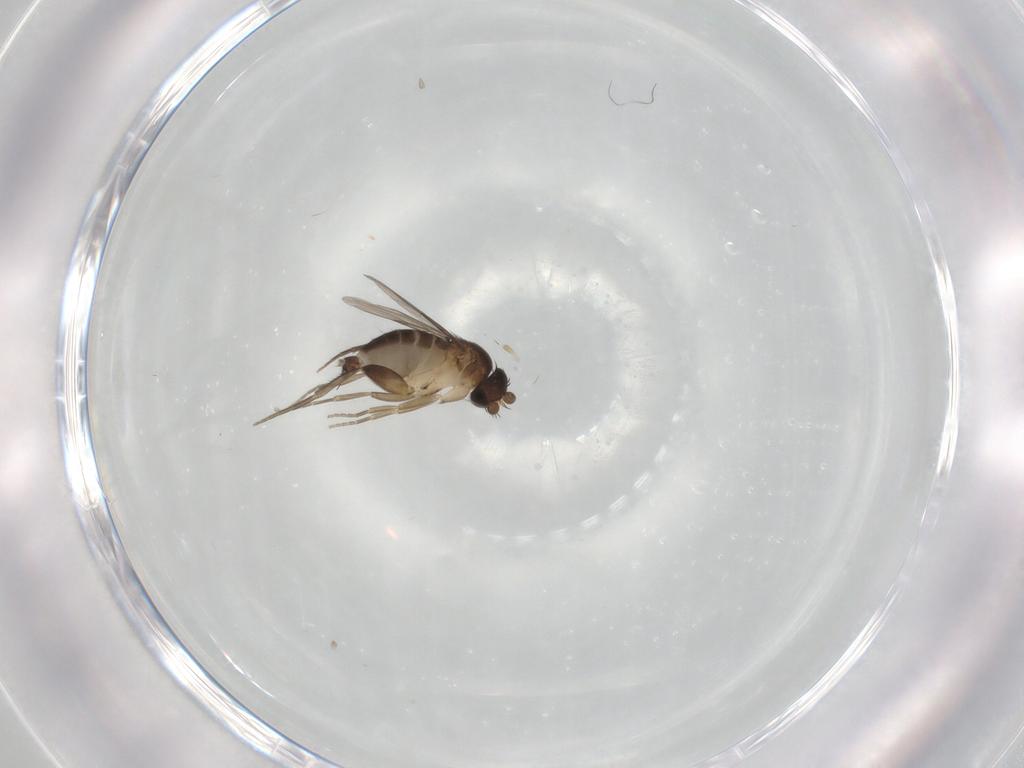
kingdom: Animalia
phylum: Arthropoda
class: Insecta
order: Diptera
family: Phoridae
